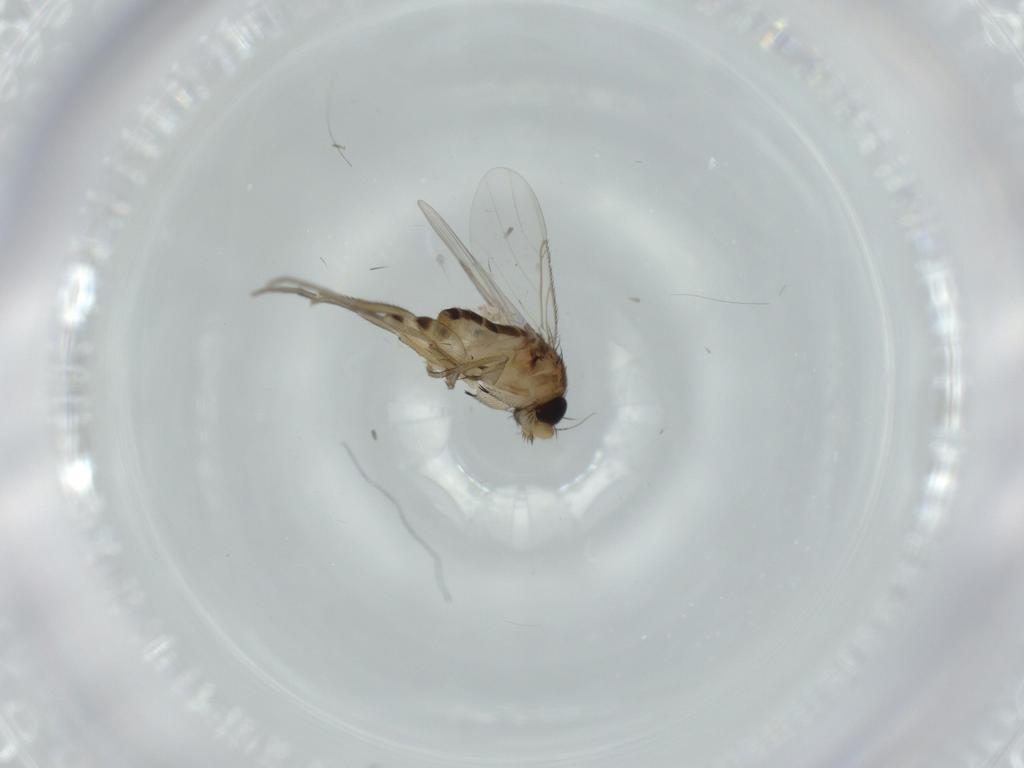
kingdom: Animalia
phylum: Arthropoda
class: Insecta
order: Diptera
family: Phoridae
